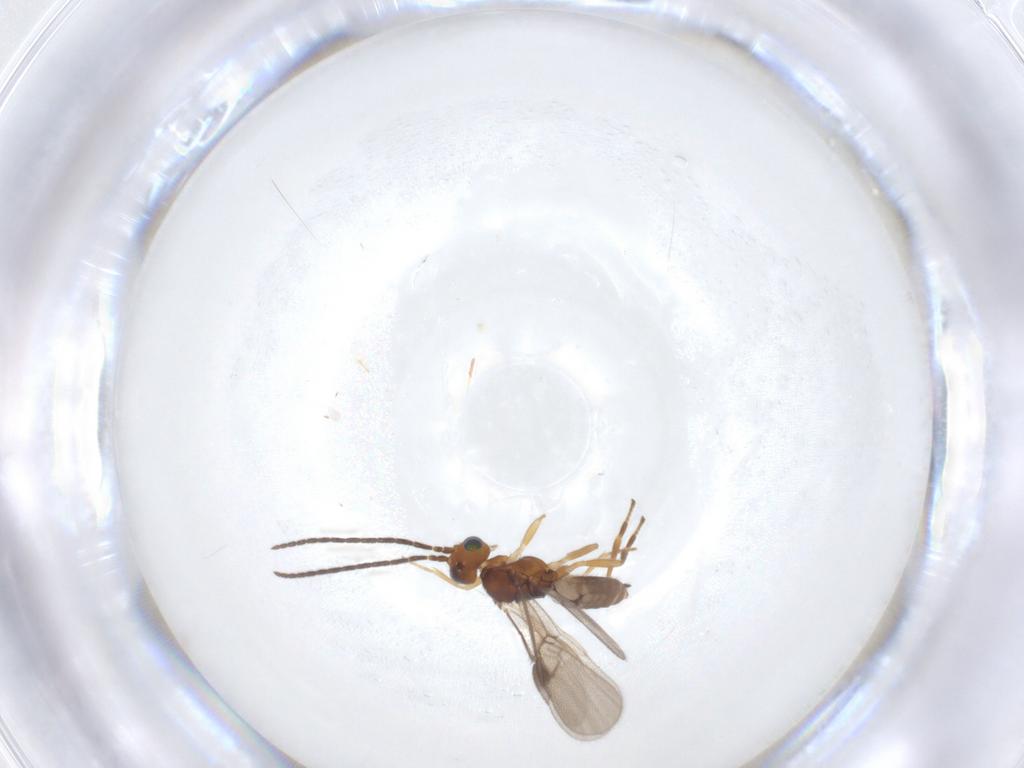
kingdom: Animalia
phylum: Arthropoda
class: Insecta
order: Hymenoptera
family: Braconidae
